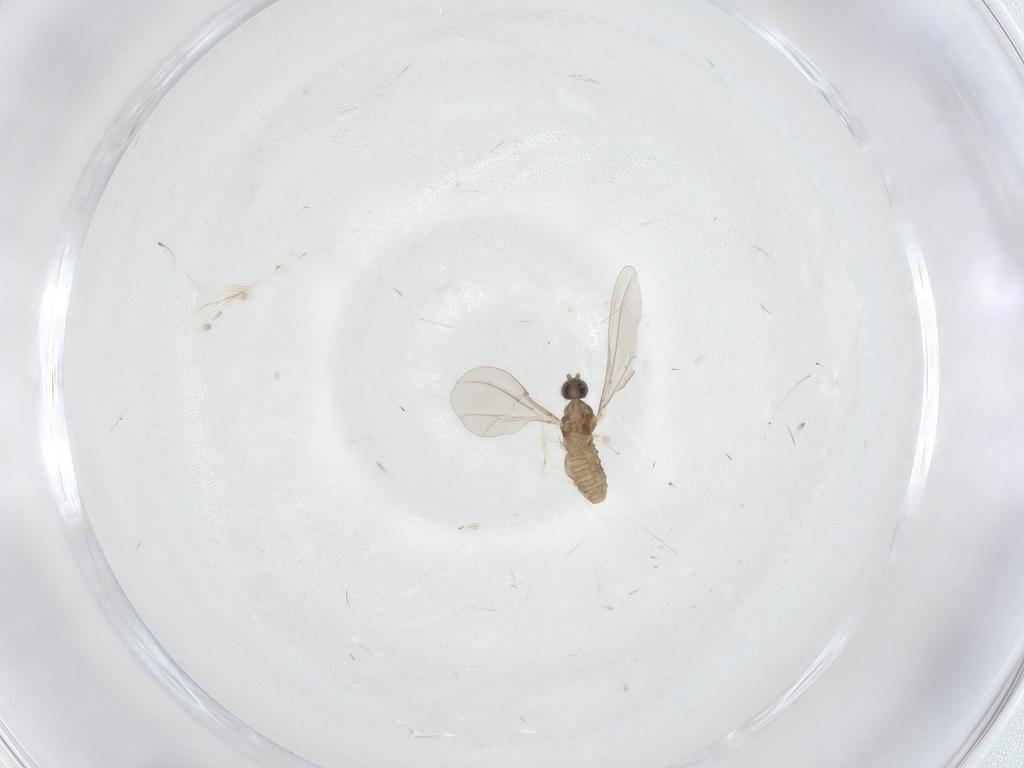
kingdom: Animalia
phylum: Arthropoda
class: Insecta
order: Diptera
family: Cecidomyiidae
